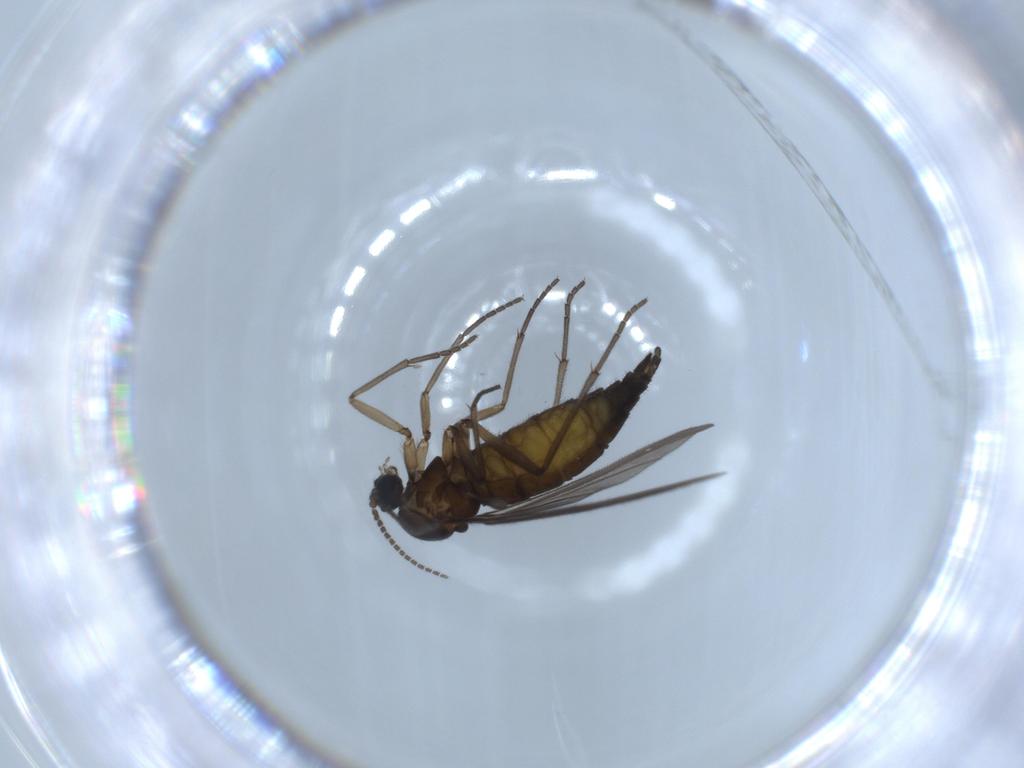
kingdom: Animalia
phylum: Arthropoda
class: Insecta
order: Diptera
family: Sciaridae
